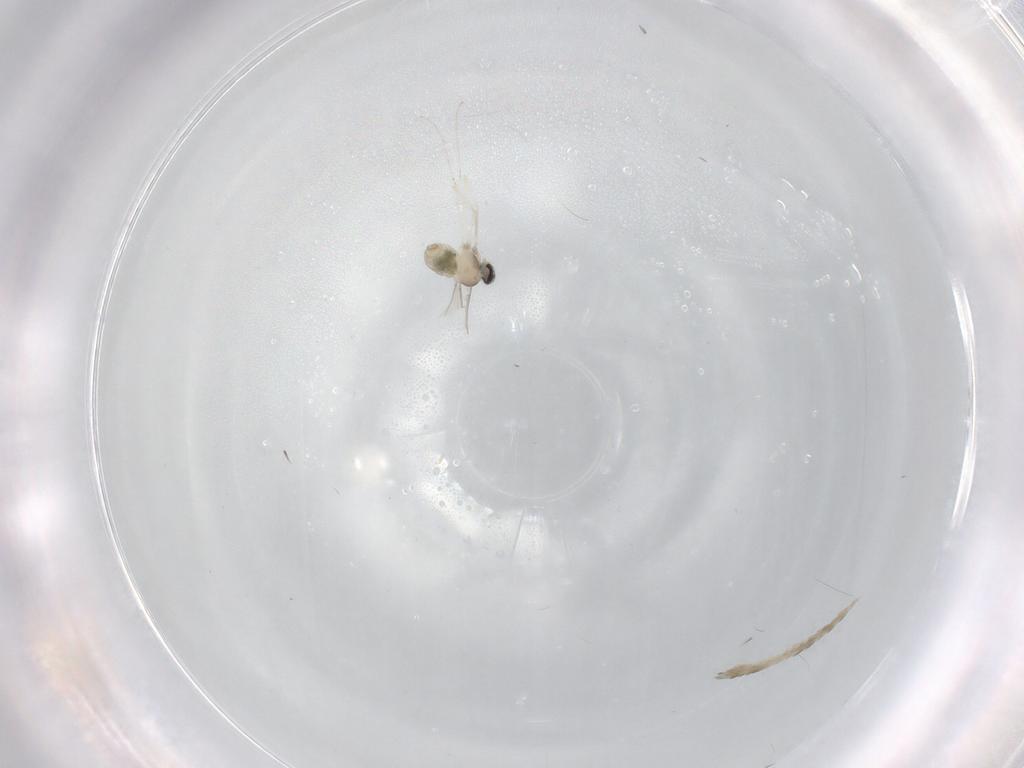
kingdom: Animalia
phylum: Arthropoda
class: Insecta
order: Diptera
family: Cecidomyiidae
